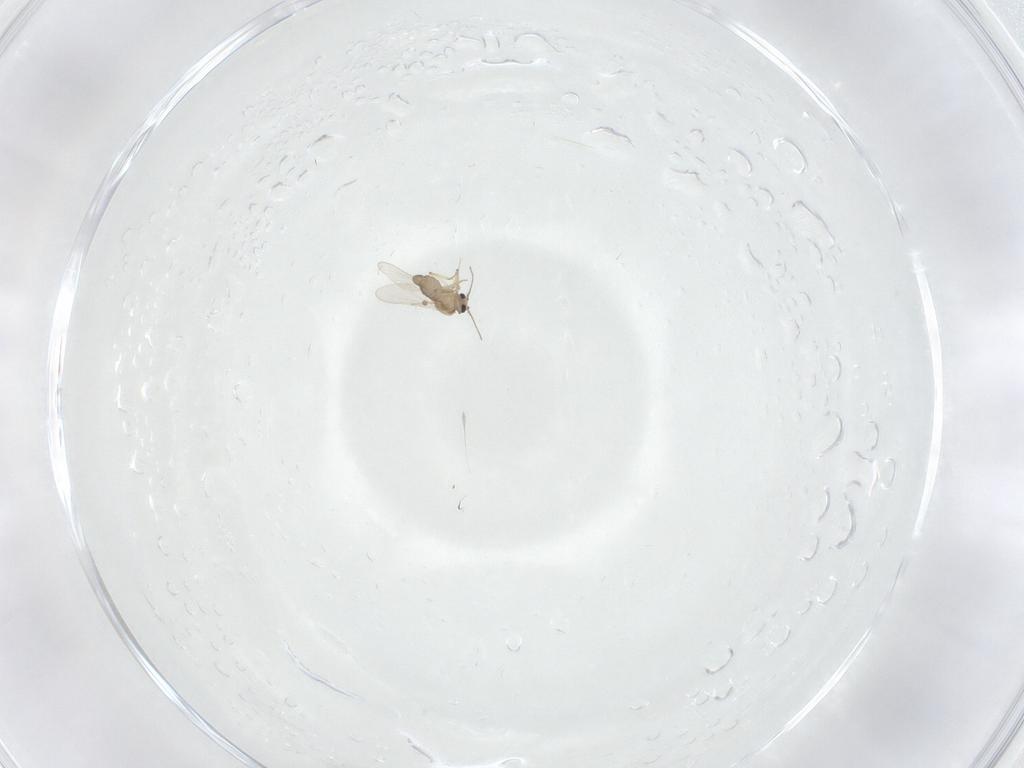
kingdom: Animalia
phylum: Arthropoda
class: Insecta
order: Diptera
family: Ceratopogonidae
